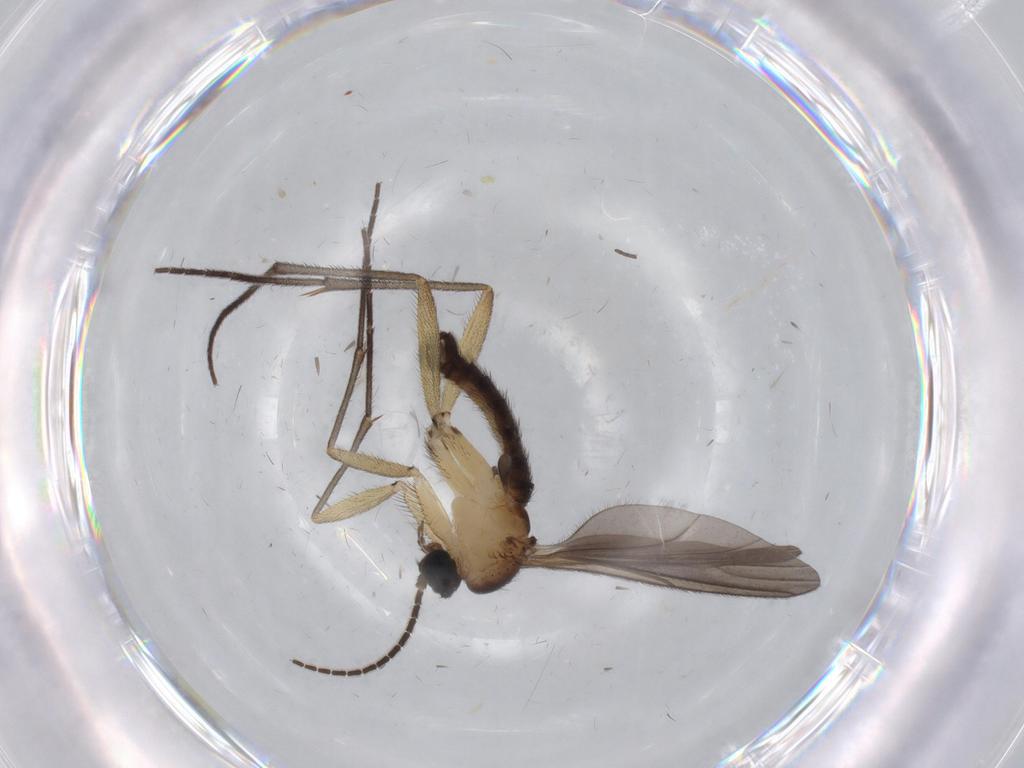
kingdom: Animalia
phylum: Arthropoda
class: Insecta
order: Diptera
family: Sciaridae
